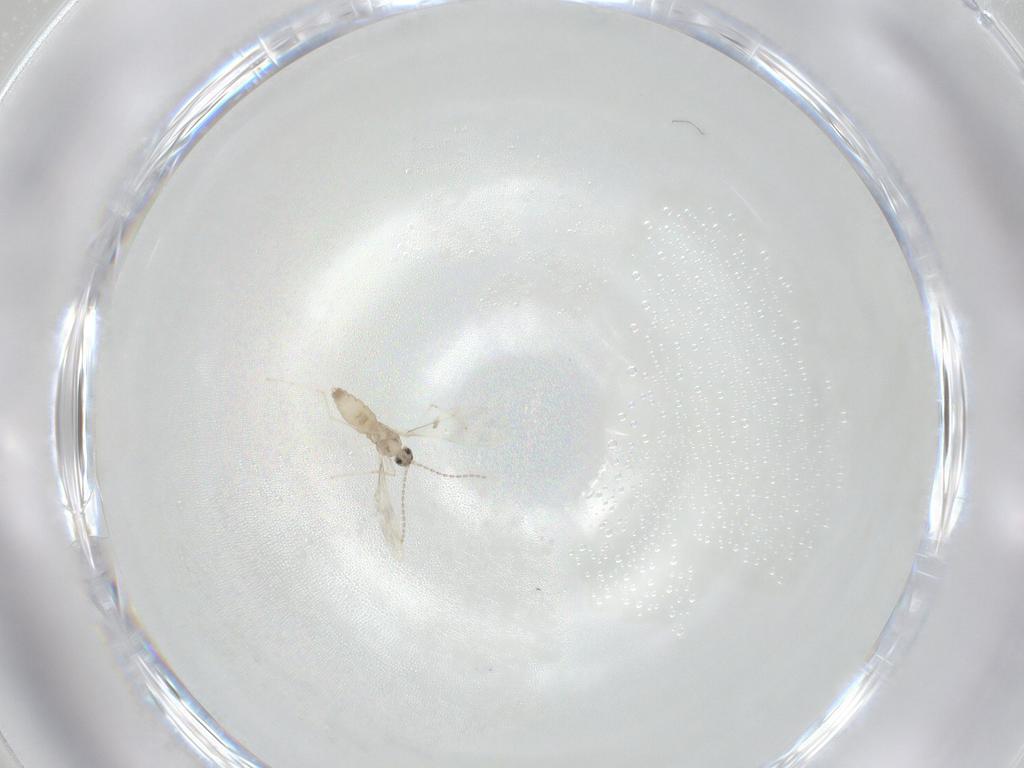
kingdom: Animalia
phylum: Arthropoda
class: Insecta
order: Diptera
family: Cecidomyiidae
